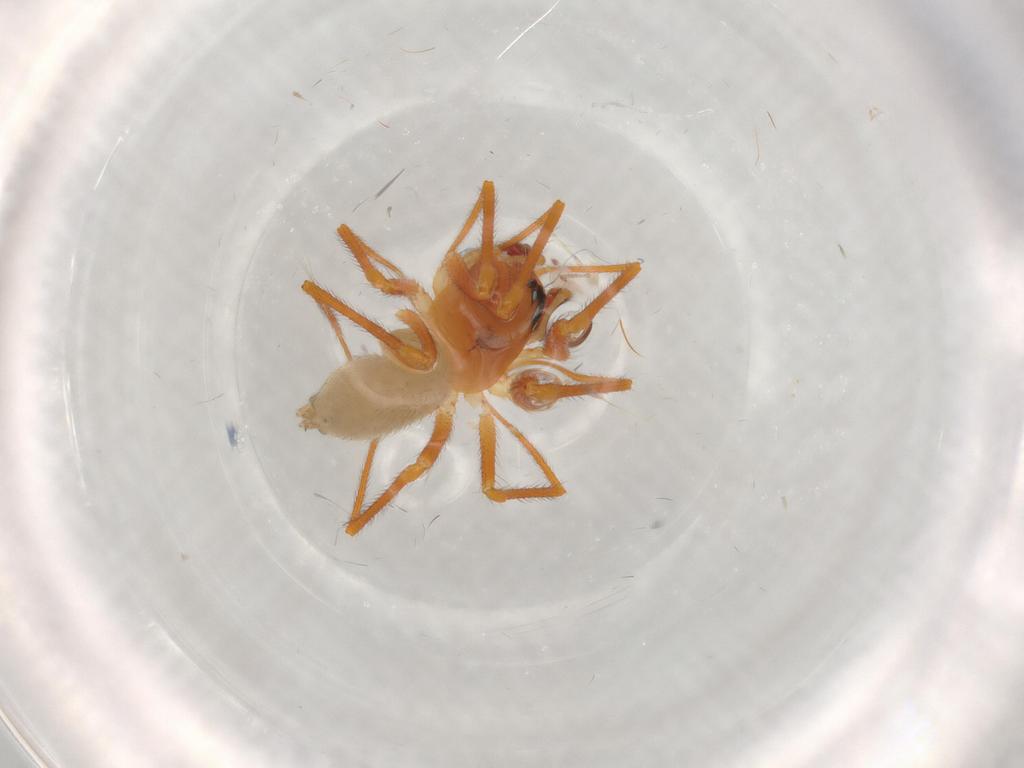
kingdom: Animalia
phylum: Arthropoda
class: Arachnida
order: Araneae
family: Linyphiidae
